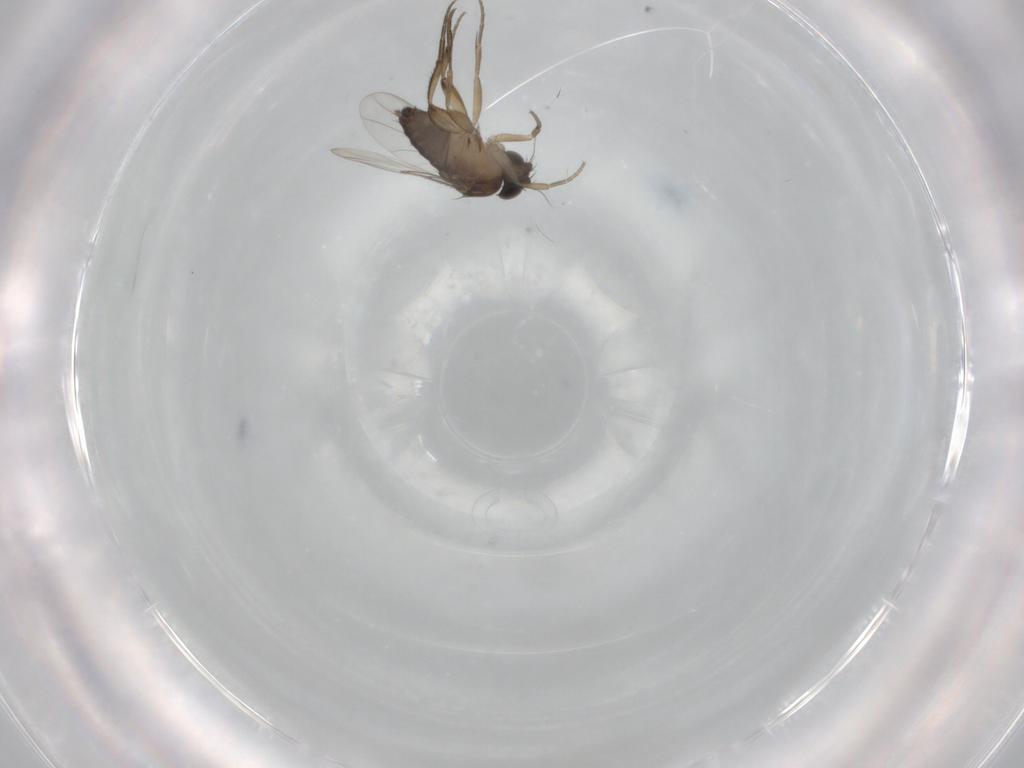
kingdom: Animalia
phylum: Arthropoda
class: Insecta
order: Diptera
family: Phoridae
